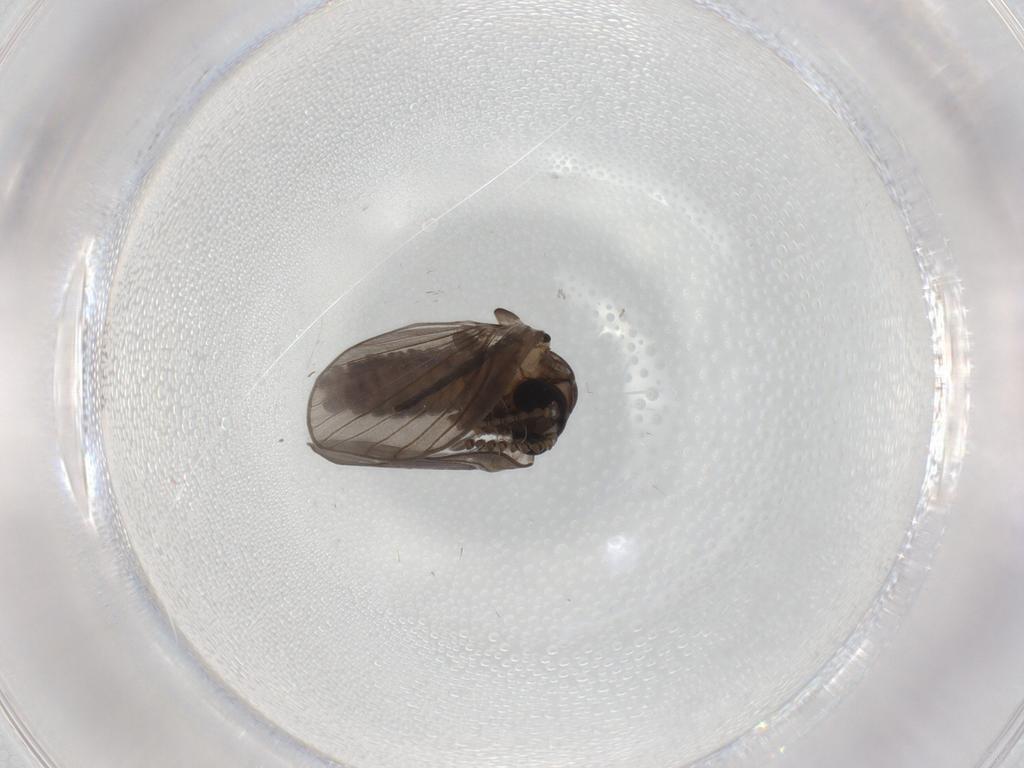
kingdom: Animalia
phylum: Arthropoda
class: Insecta
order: Diptera
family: Psychodidae
